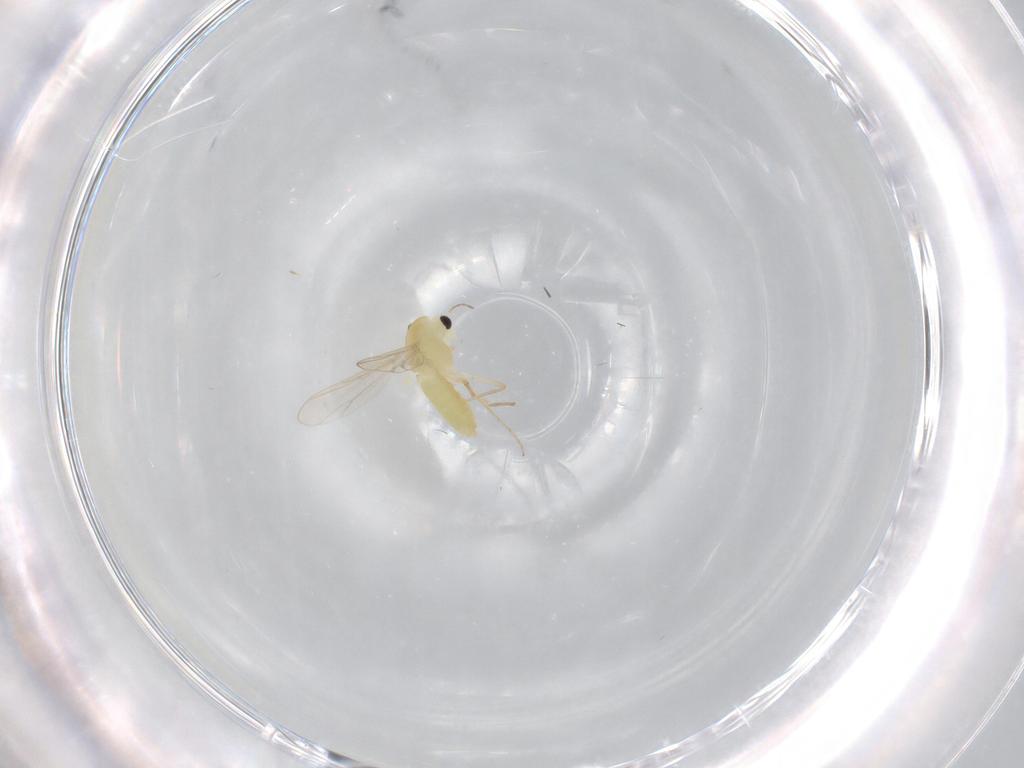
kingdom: Animalia
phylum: Arthropoda
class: Insecta
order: Diptera
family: Chironomidae
